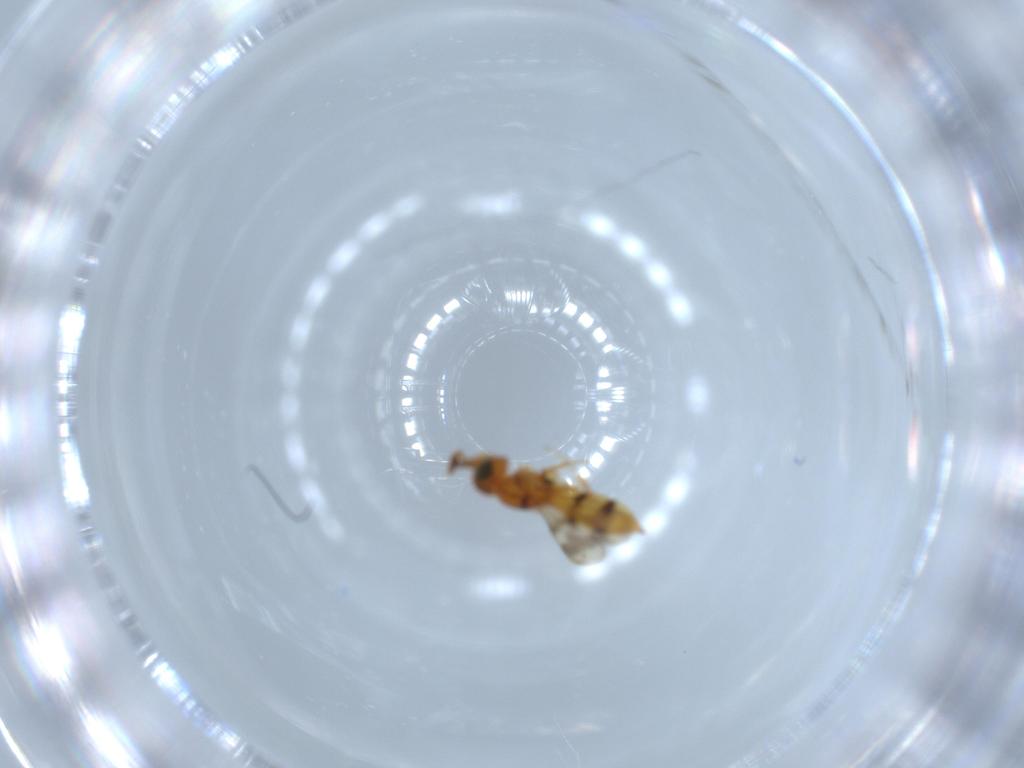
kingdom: Animalia
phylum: Arthropoda
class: Insecta
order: Hymenoptera
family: Scelionidae
